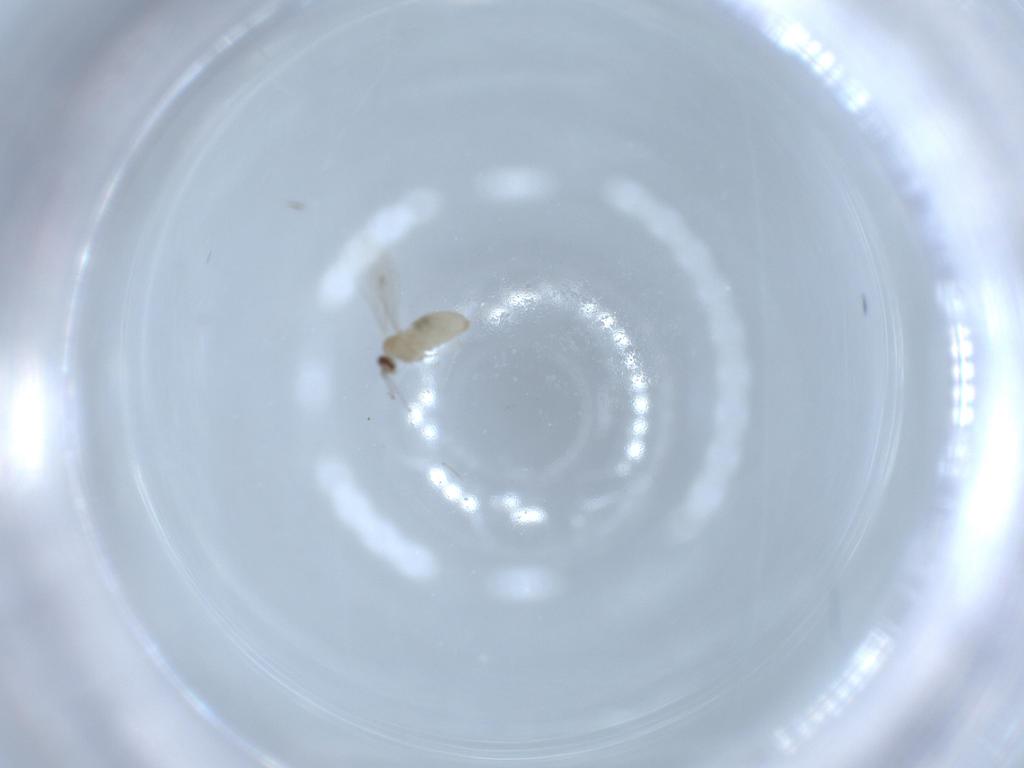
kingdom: Animalia
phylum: Arthropoda
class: Insecta
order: Diptera
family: Cecidomyiidae
